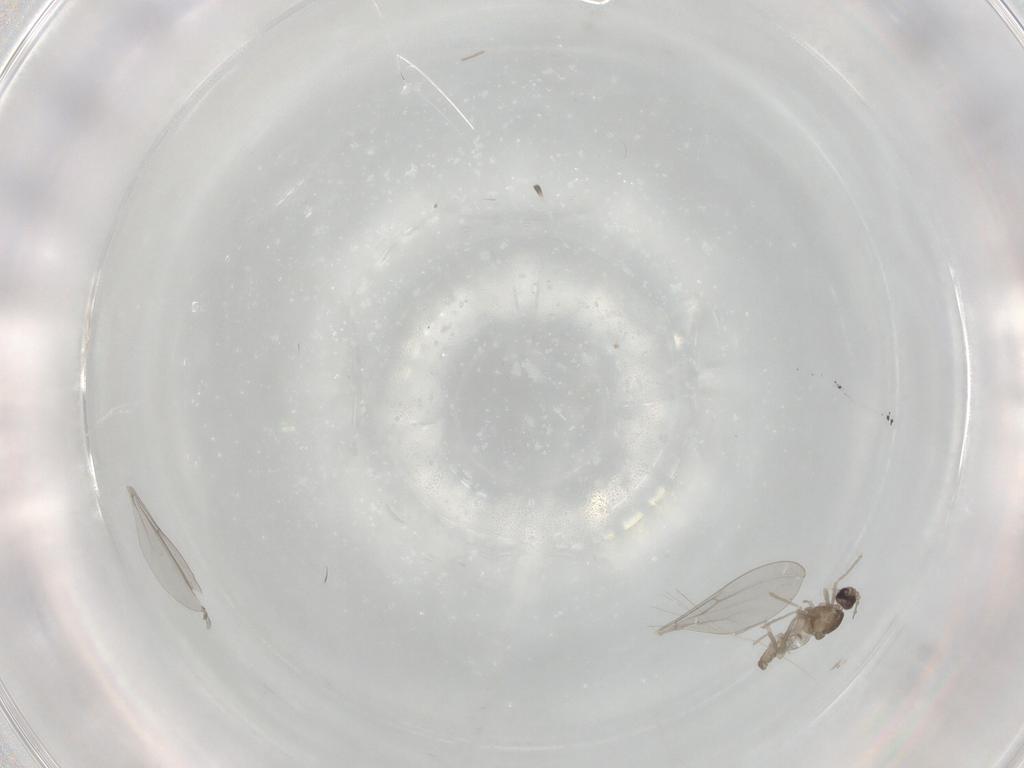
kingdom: Animalia
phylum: Arthropoda
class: Insecta
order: Diptera
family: Cecidomyiidae
